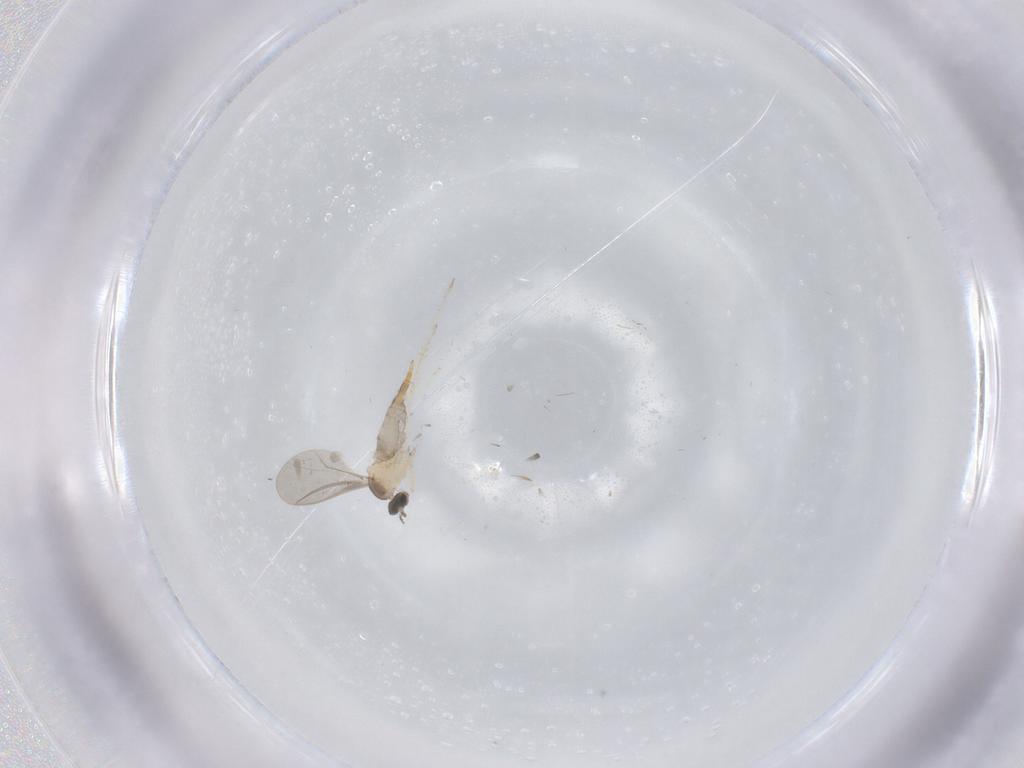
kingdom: Animalia
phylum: Arthropoda
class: Insecta
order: Diptera
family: Cecidomyiidae
